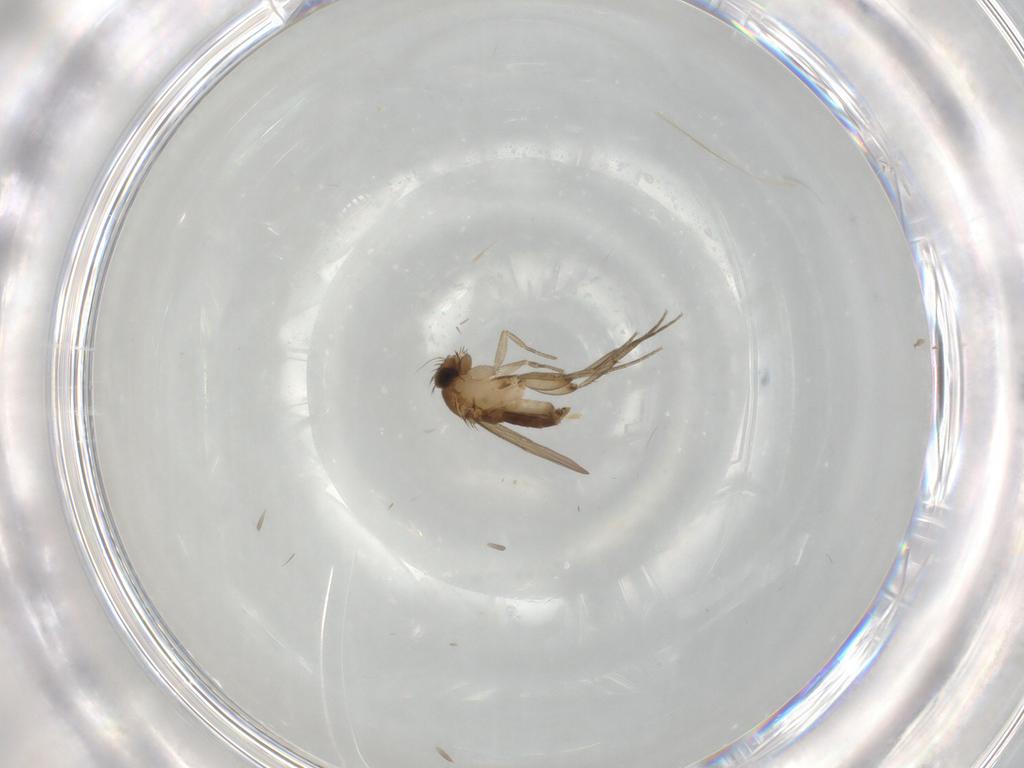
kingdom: Animalia
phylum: Arthropoda
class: Insecta
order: Diptera
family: Phoridae
